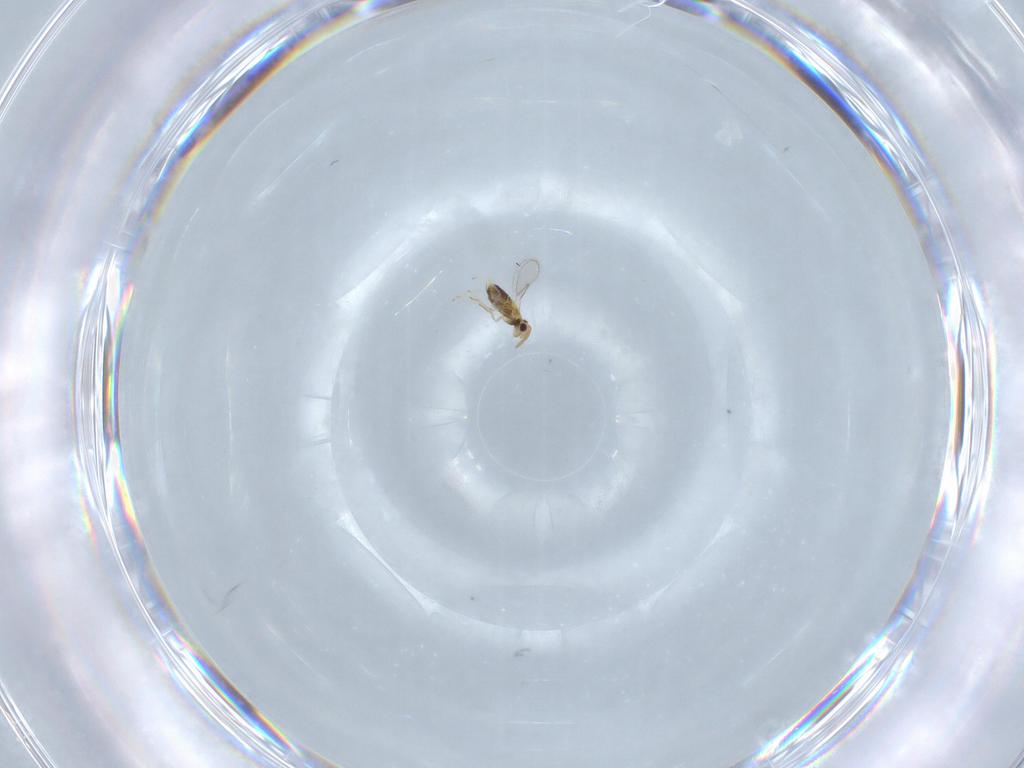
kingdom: Animalia
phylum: Arthropoda
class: Insecta
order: Hymenoptera
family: Aphelinidae
